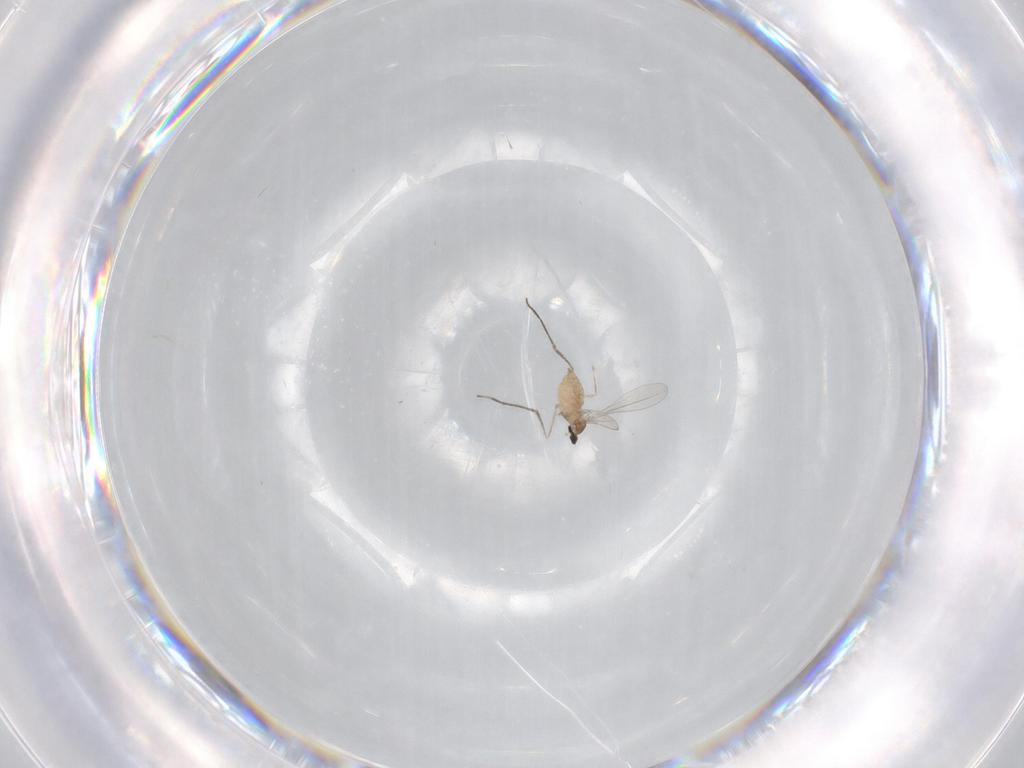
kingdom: Animalia
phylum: Arthropoda
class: Insecta
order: Diptera
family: Cecidomyiidae
